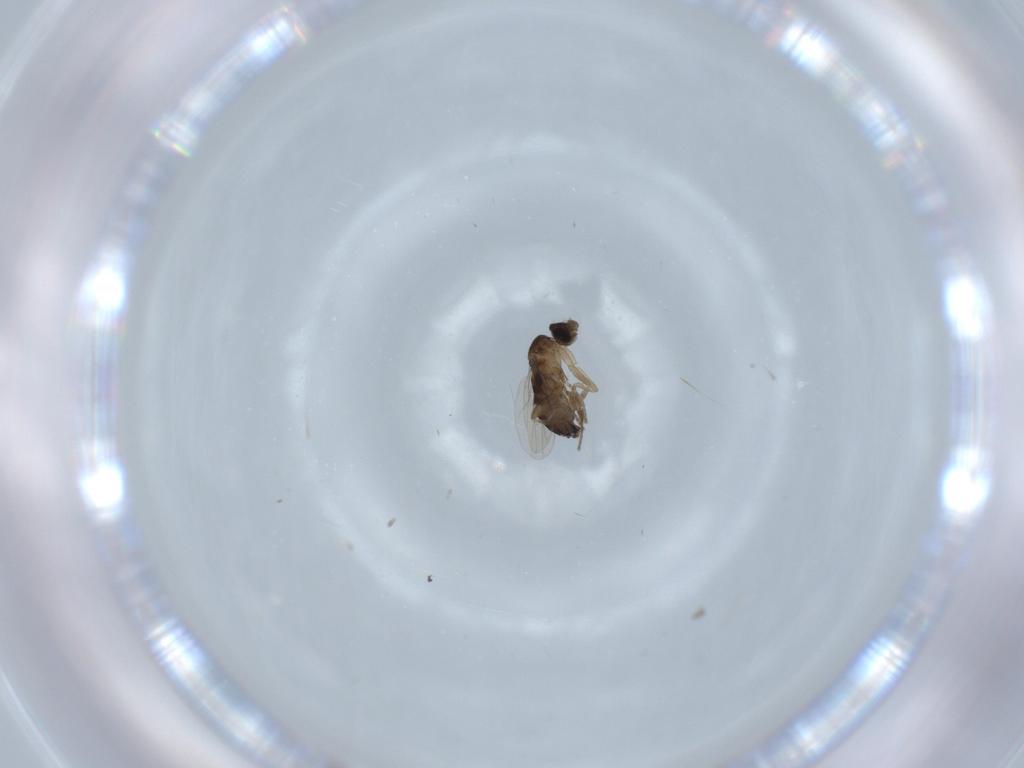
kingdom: Animalia
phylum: Arthropoda
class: Insecta
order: Diptera
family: Phoridae
